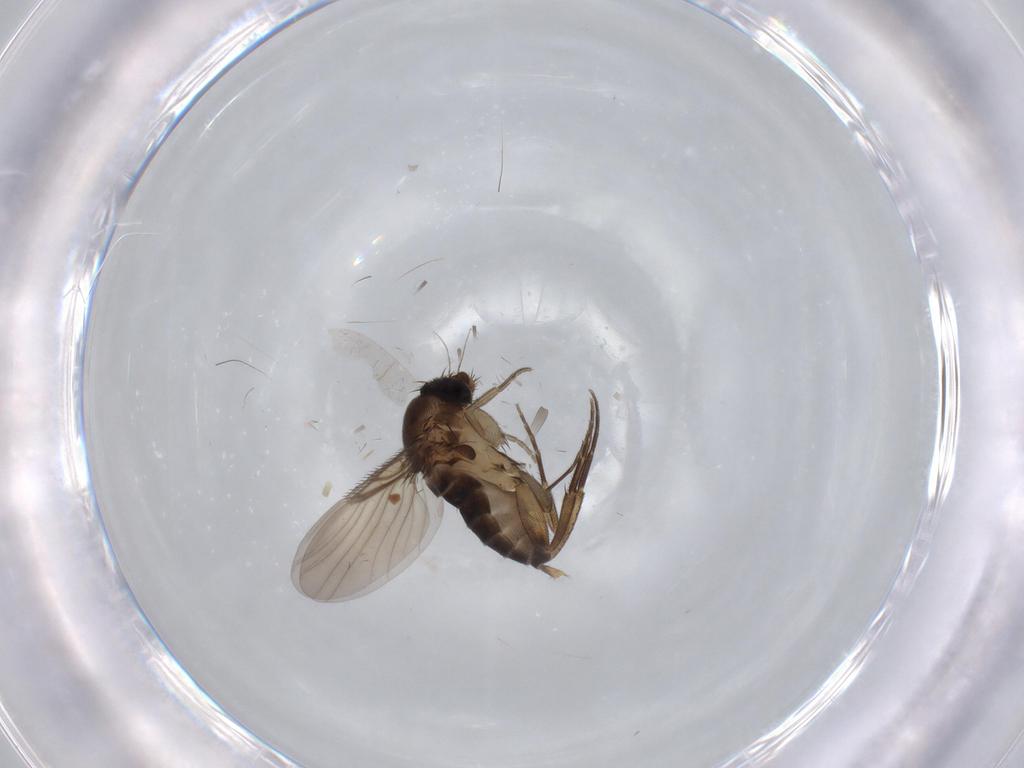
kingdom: Animalia
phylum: Arthropoda
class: Insecta
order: Diptera
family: Phoridae
